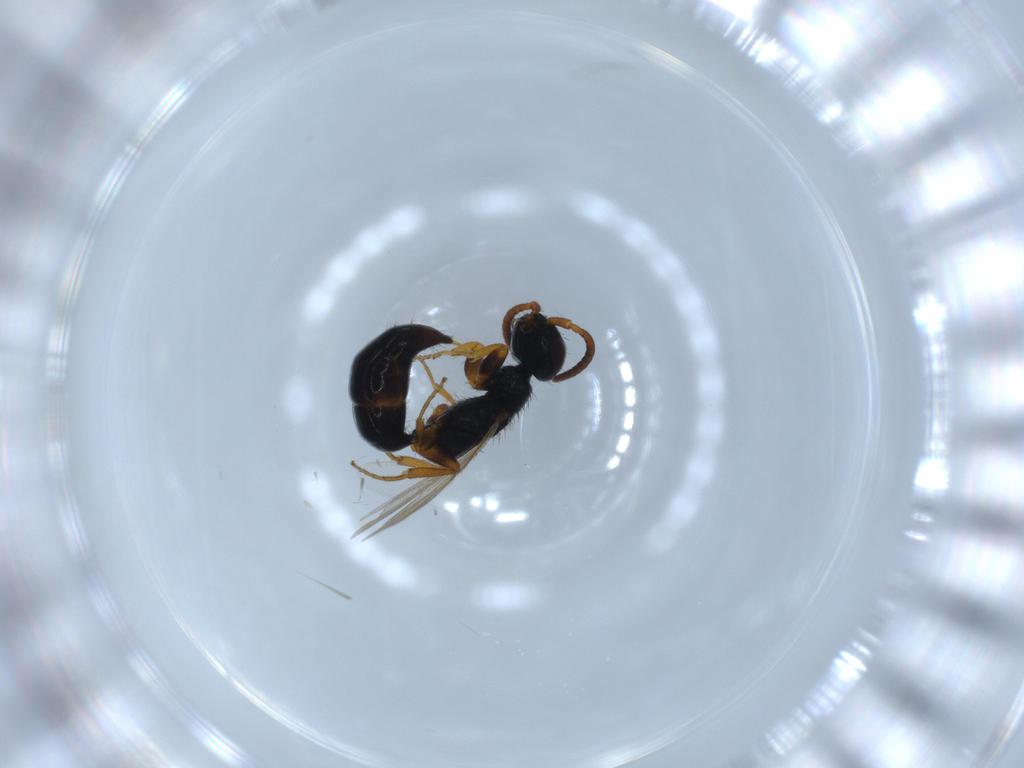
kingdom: Animalia
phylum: Arthropoda
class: Insecta
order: Hymenoptera
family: Bethylidae
